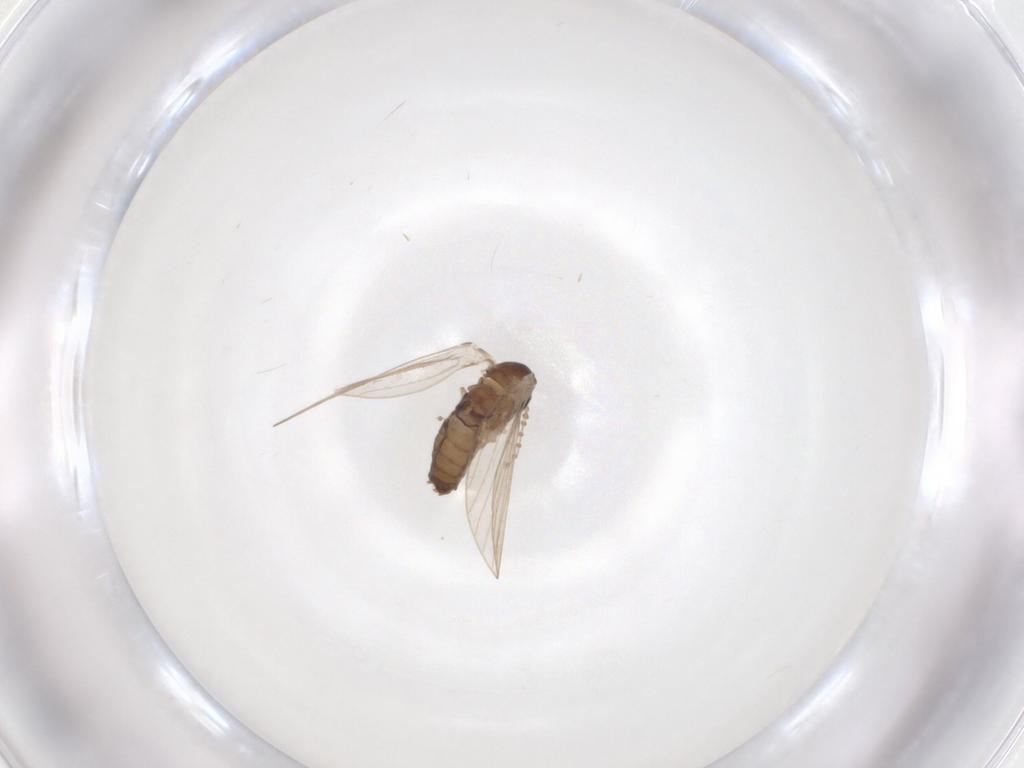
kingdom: Animalia
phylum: Arthropoda
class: Insecta
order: Diptera
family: Psychodidae
